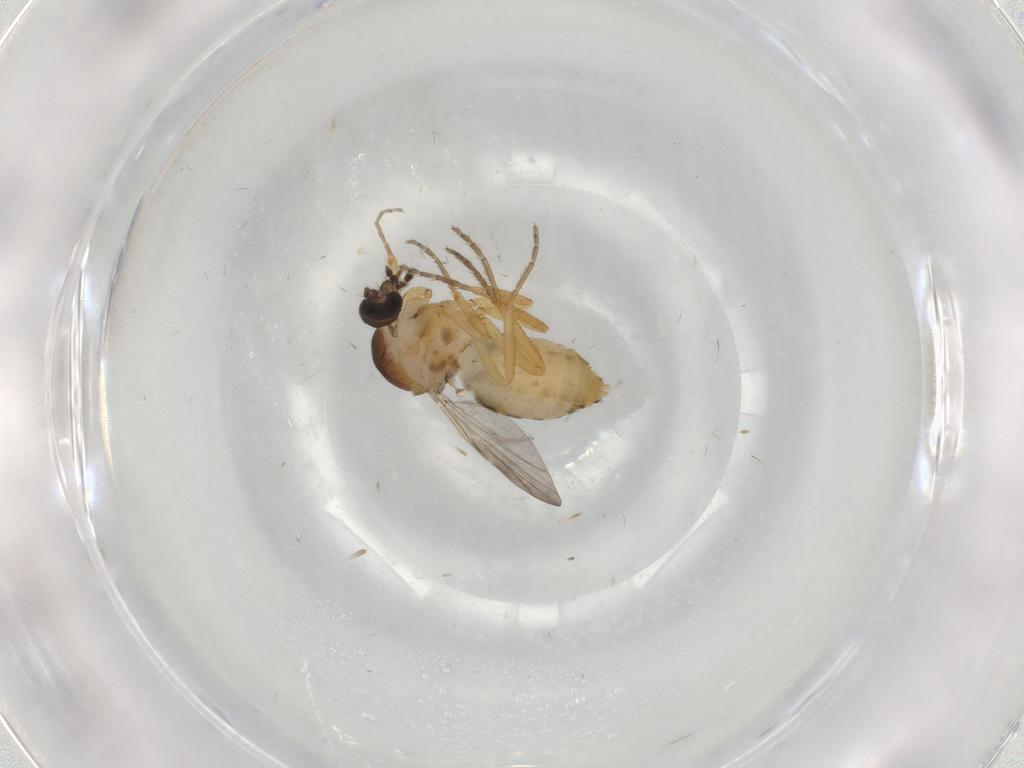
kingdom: Animalia
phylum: Arthropoda
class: Insecta
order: Diptera
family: Ceratopogonidae
